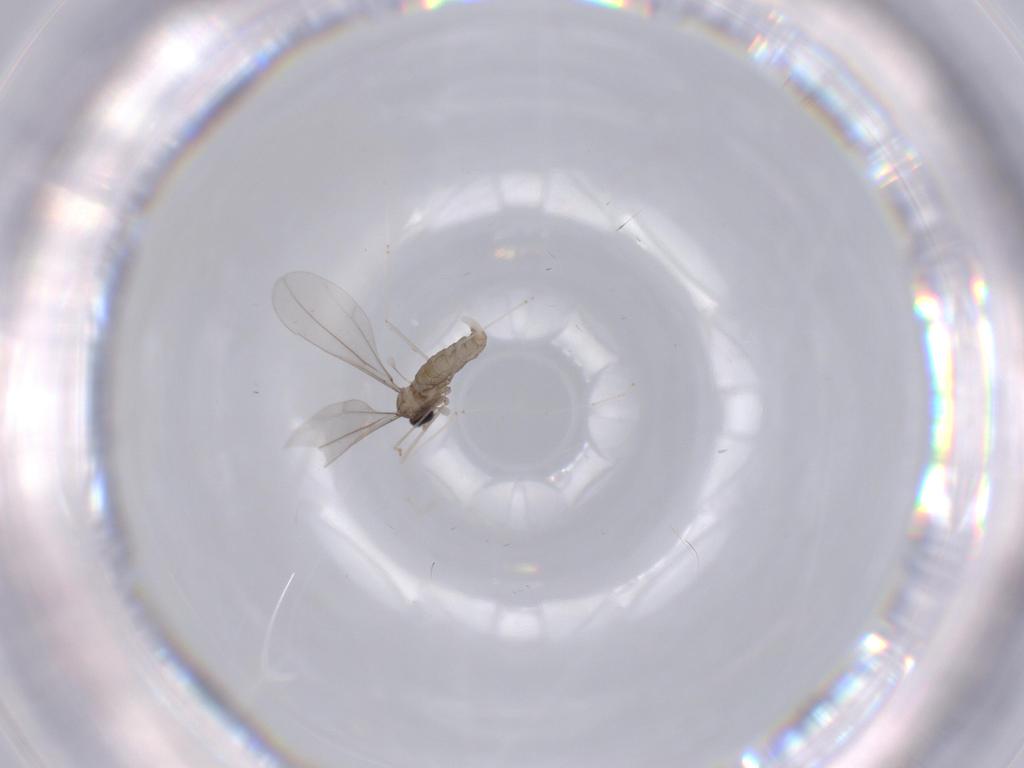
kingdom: Animalia
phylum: Arthropoda
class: Insecta
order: Diptera
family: Cecidomyiidae
